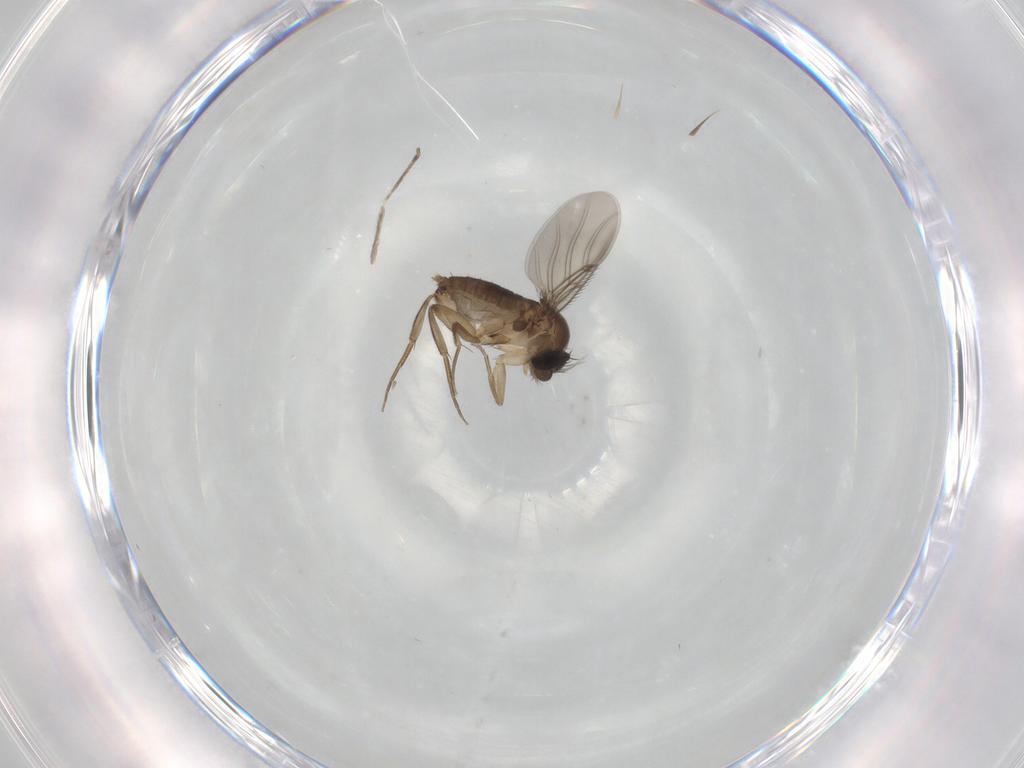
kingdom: Animalia
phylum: Arthropoda
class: Insecta
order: Diptera
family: Phoridae
